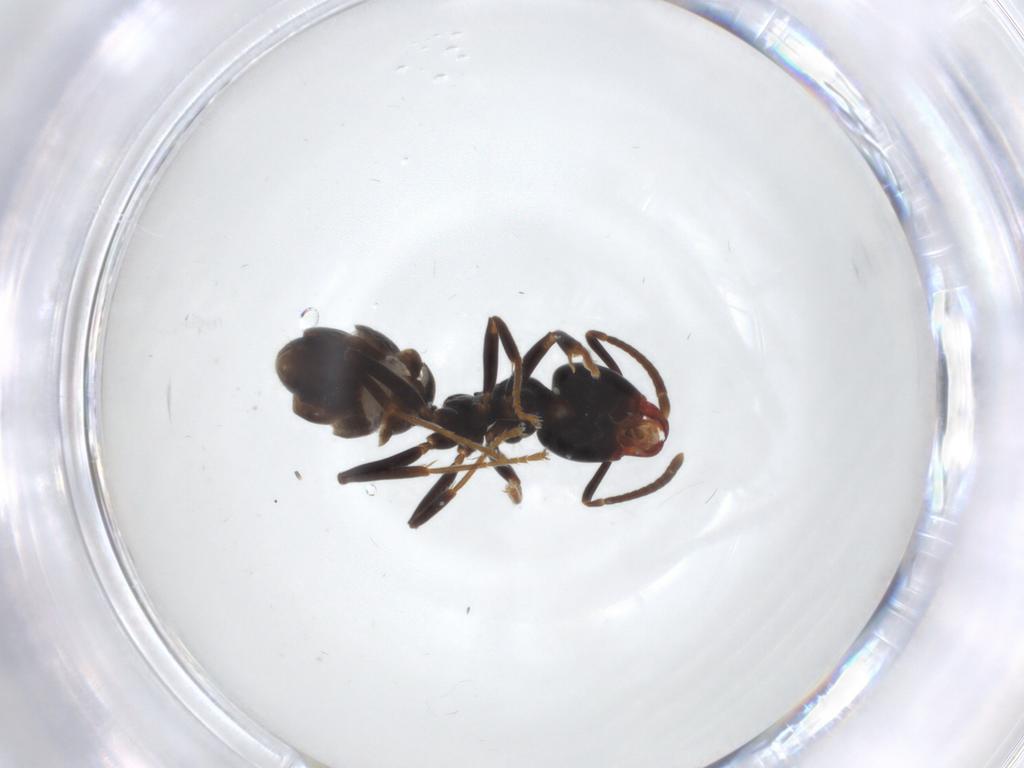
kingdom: Animalia
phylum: Arthropoda
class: Insecta
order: Hymenoptera
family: Formicidae
